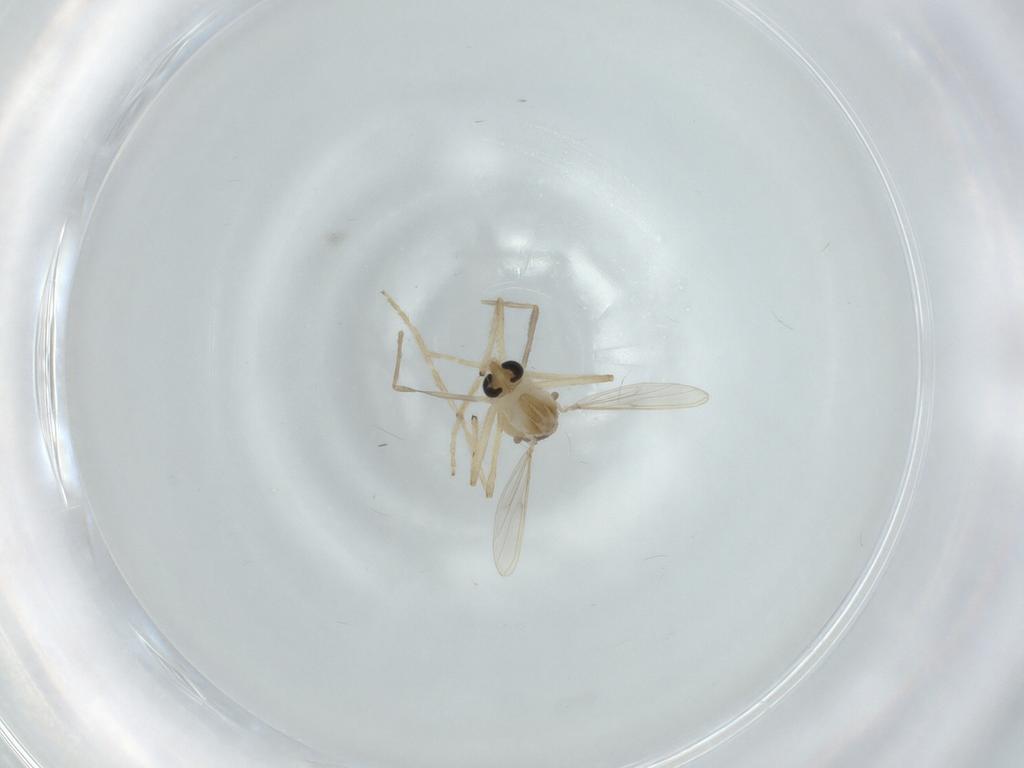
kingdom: Animalia
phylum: Arthropoda
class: Insecta
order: Diptera
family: Chironomidae
